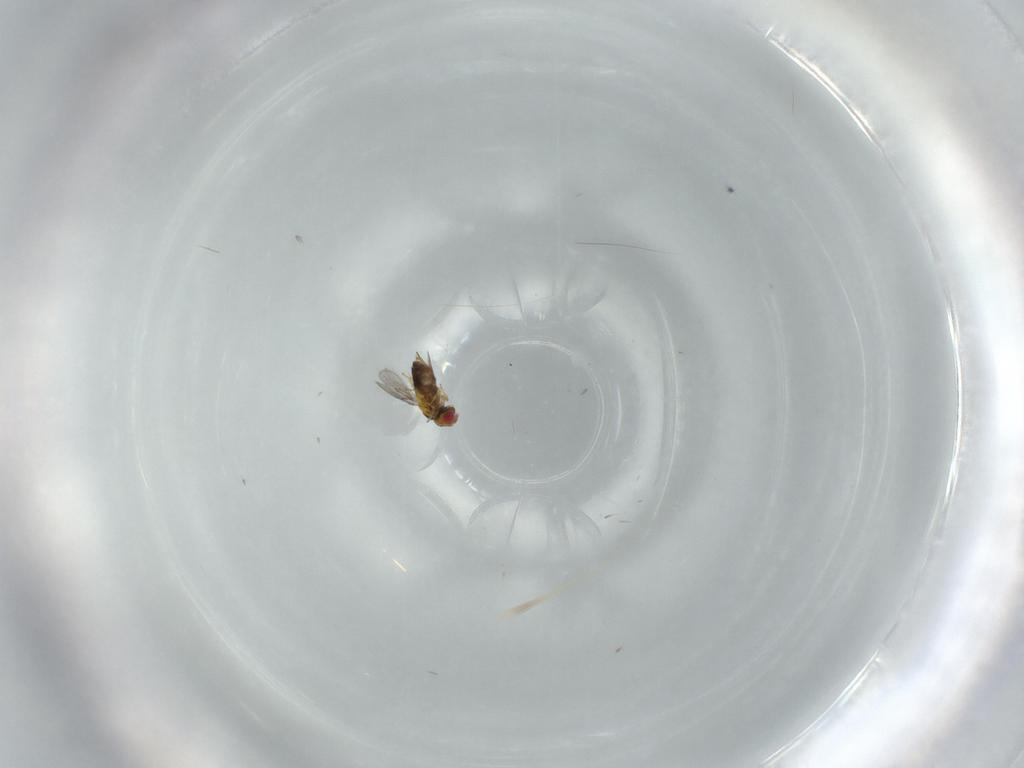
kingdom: Animalia
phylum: Arthropoda
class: Insecta
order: Hymenoptera
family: Trichogrammatidae
